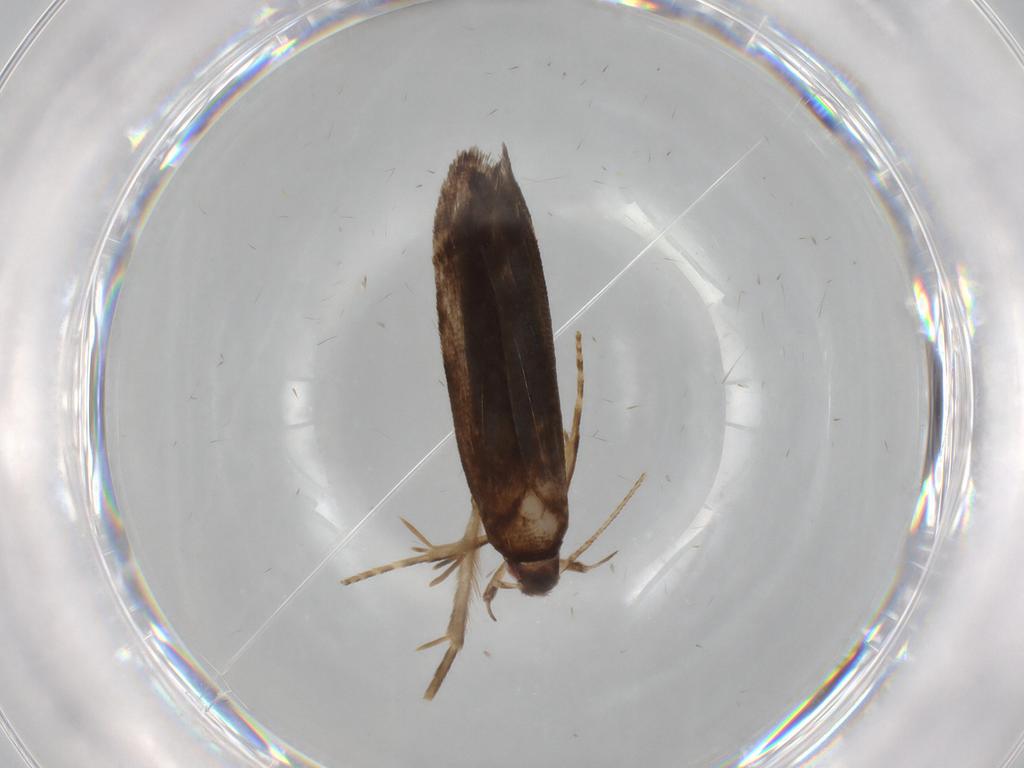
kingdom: Animalia
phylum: Arthropoda
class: Insecta
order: Lepidoptera
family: Gelechiidae
